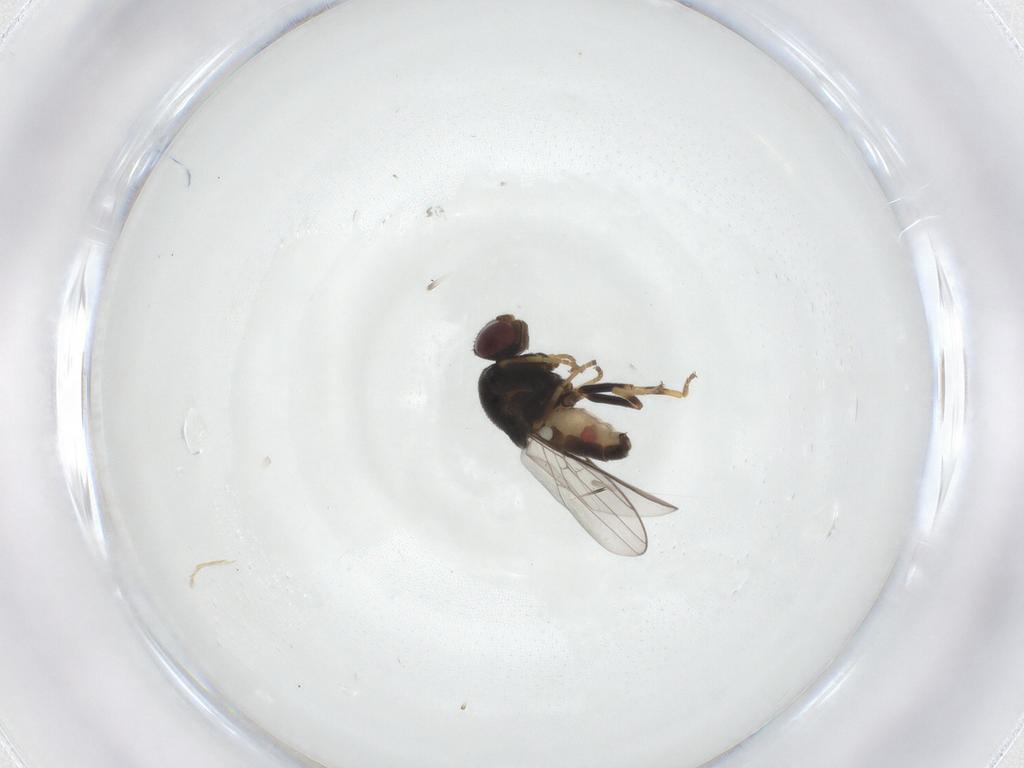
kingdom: Animalia
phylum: Arthropoda
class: Insecta
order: Diptera
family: Chloropidae
